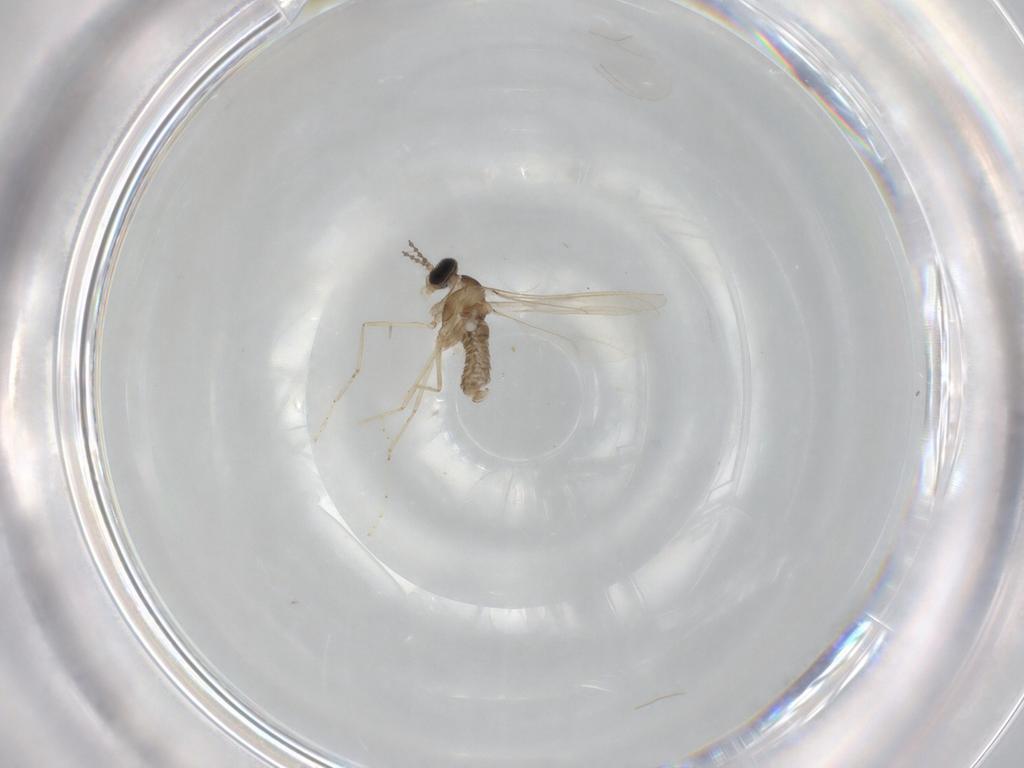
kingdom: Animalia
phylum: Arthropoda
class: Insecta
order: Diptera
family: Cecidomyiidae
